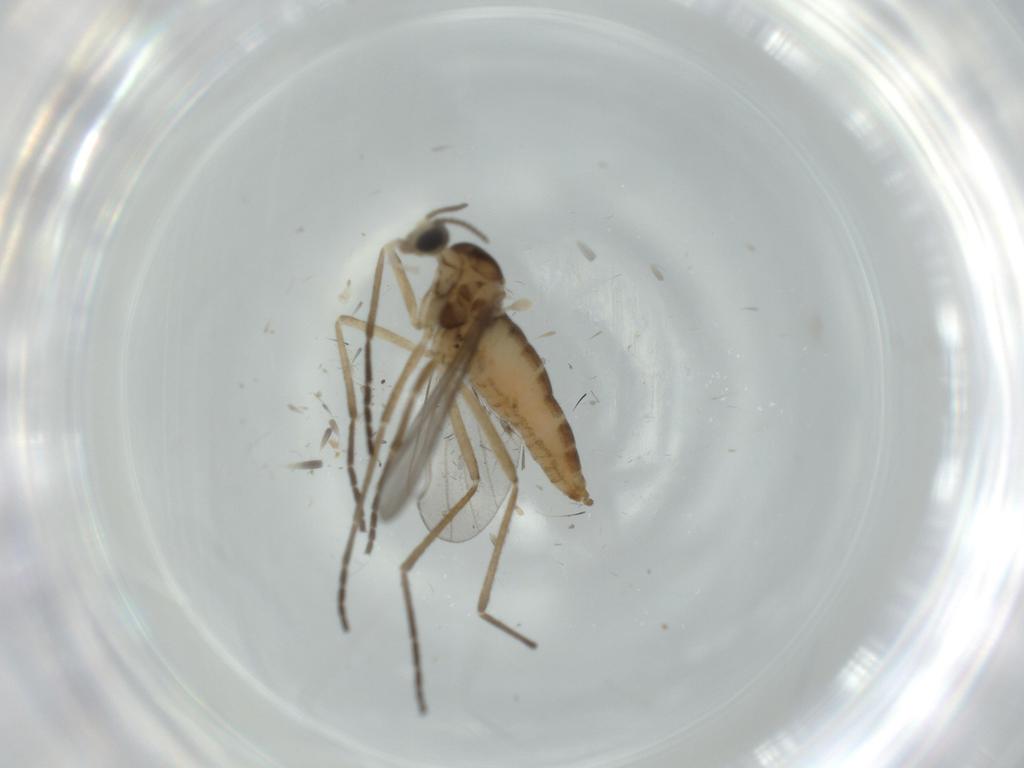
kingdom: Animalia
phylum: Arthropoda
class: Insecta
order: Diptera
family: Cecidomyiidae
